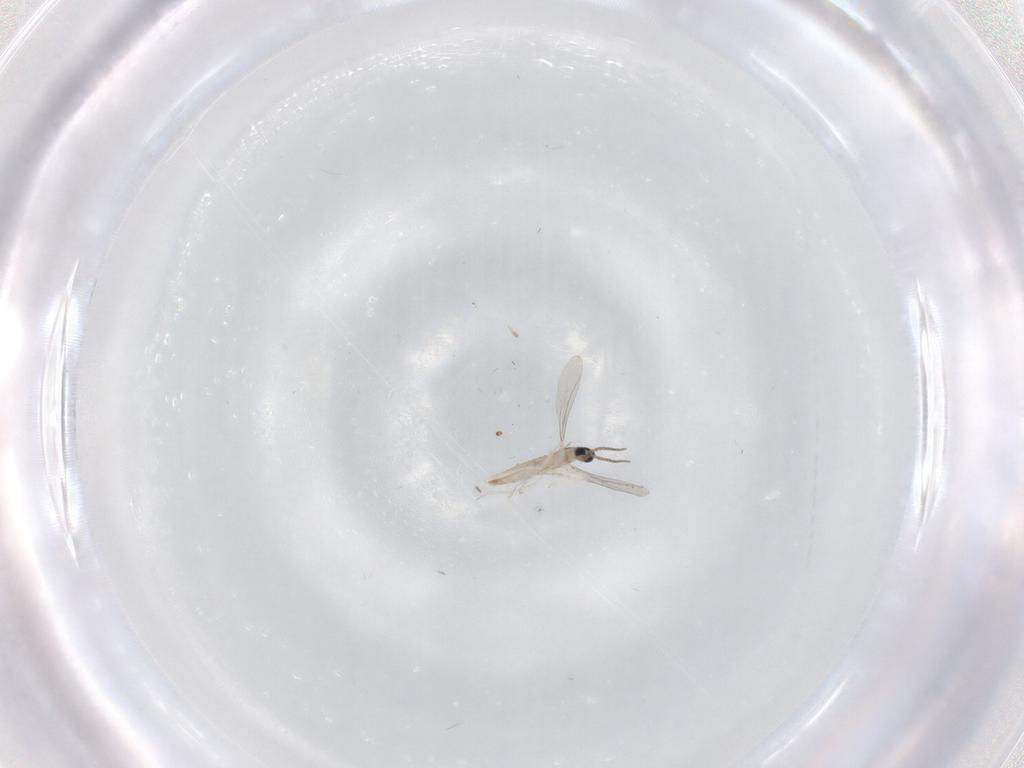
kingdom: Animalia
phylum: Arthropoda
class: Insecta
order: Diptera
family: Cecidomyiidae
